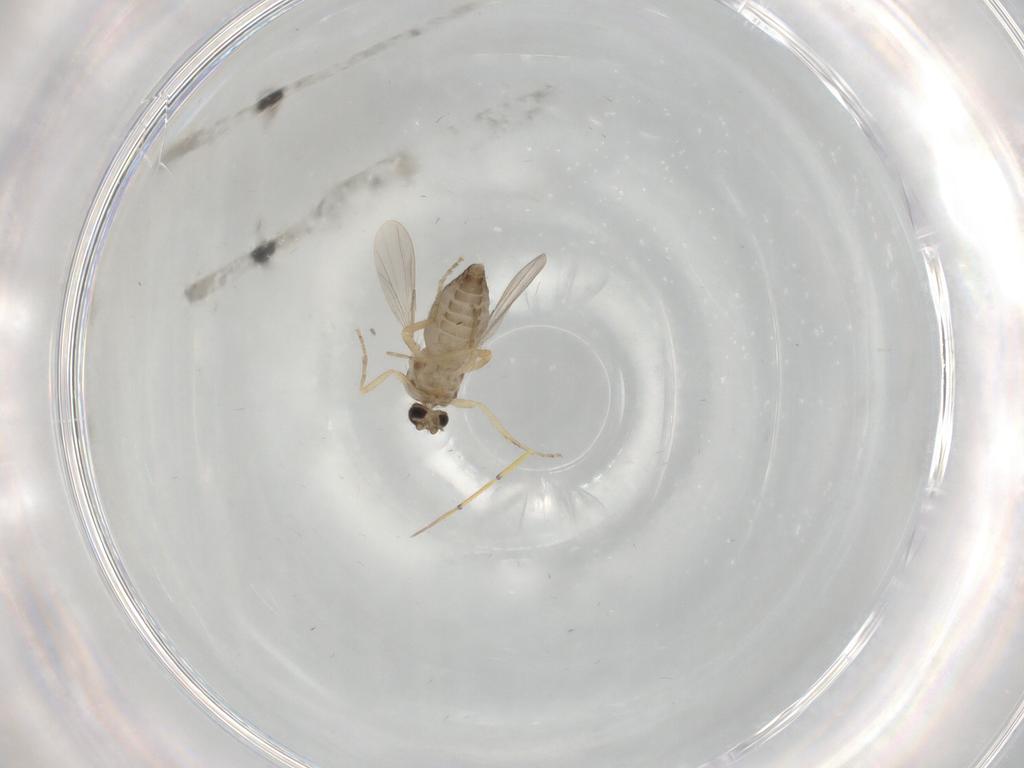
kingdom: Animalia
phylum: Arthropoda
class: Insecta
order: Diptera
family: Ceratopogonidae
